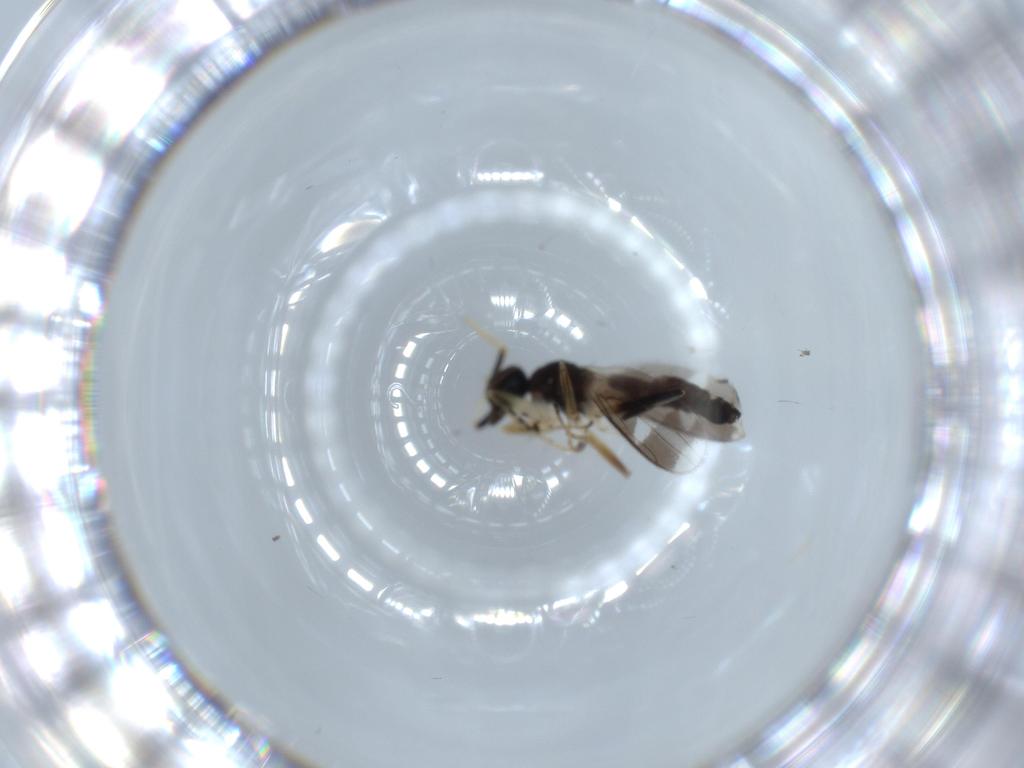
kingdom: Animalia
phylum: Arthropoda
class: Insecta
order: Diptera
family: Hybotidae
